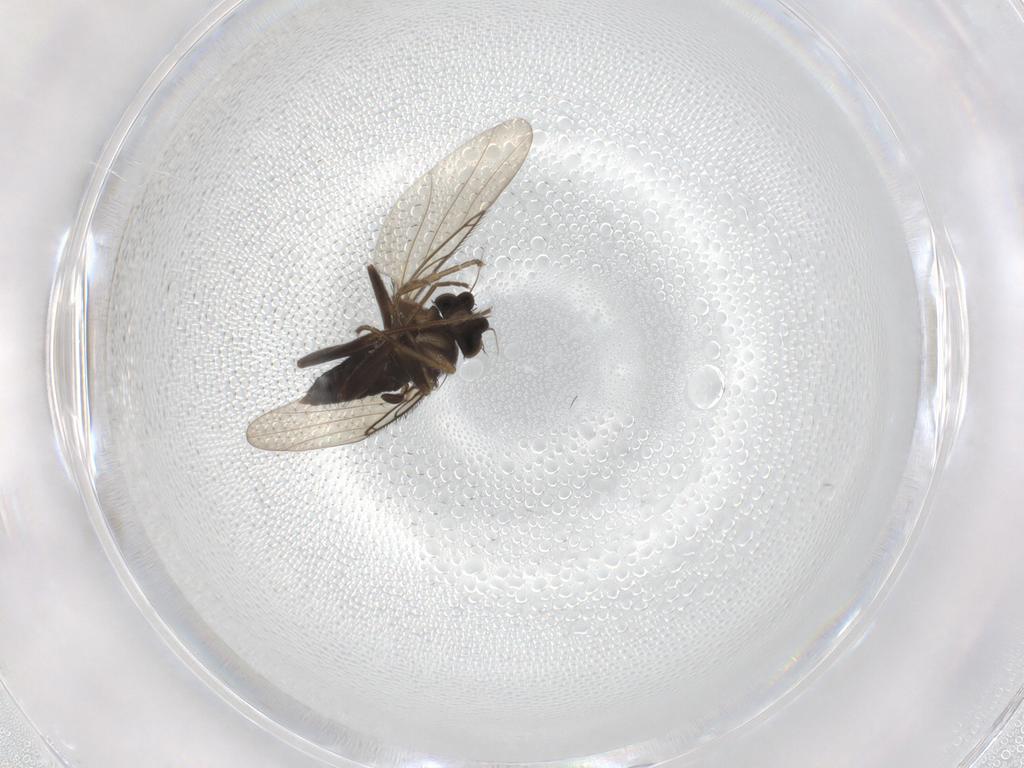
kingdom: Animalia
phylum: Arthropoda
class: Insecta
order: Diptera
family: Phoridae
